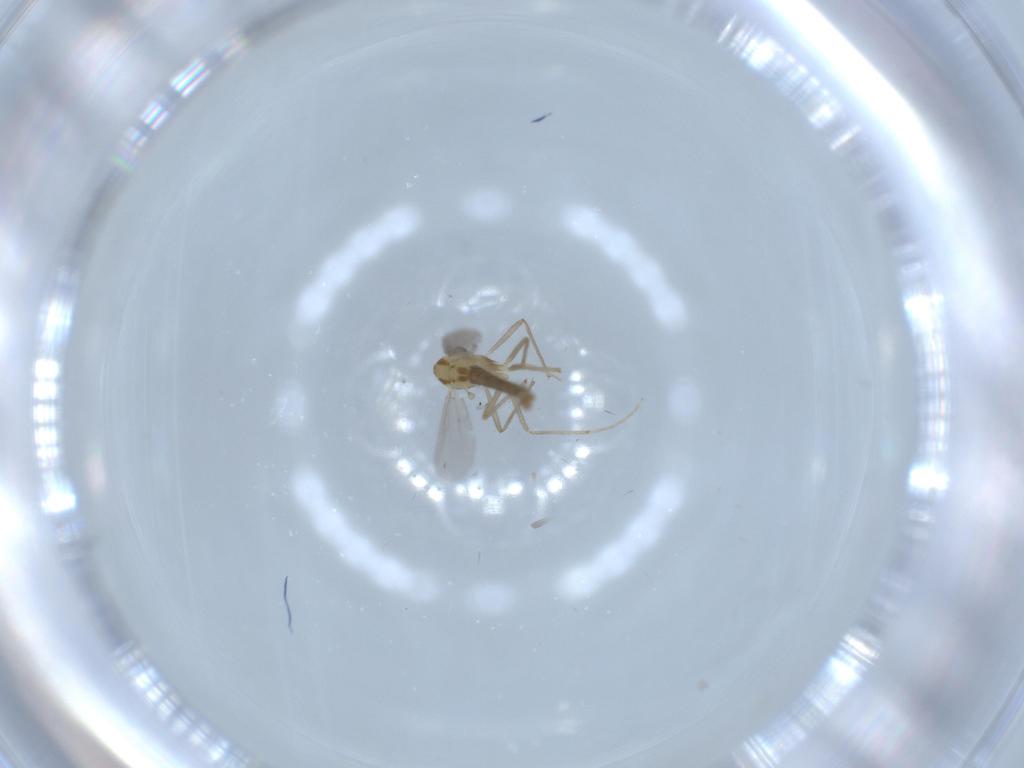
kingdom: Animalia
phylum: Arthropoda
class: Insecta
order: Diptera
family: Chironomidae
